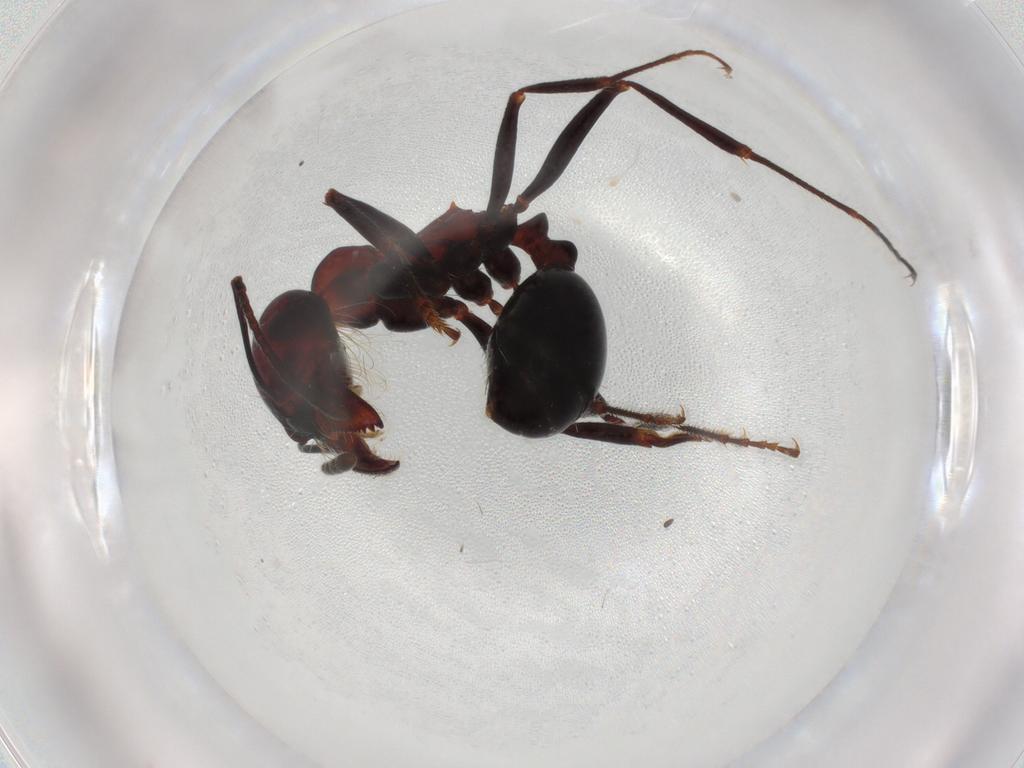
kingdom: Animalia
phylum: Arthropoda
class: Insecta
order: Hymenoptera
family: Formicidae
